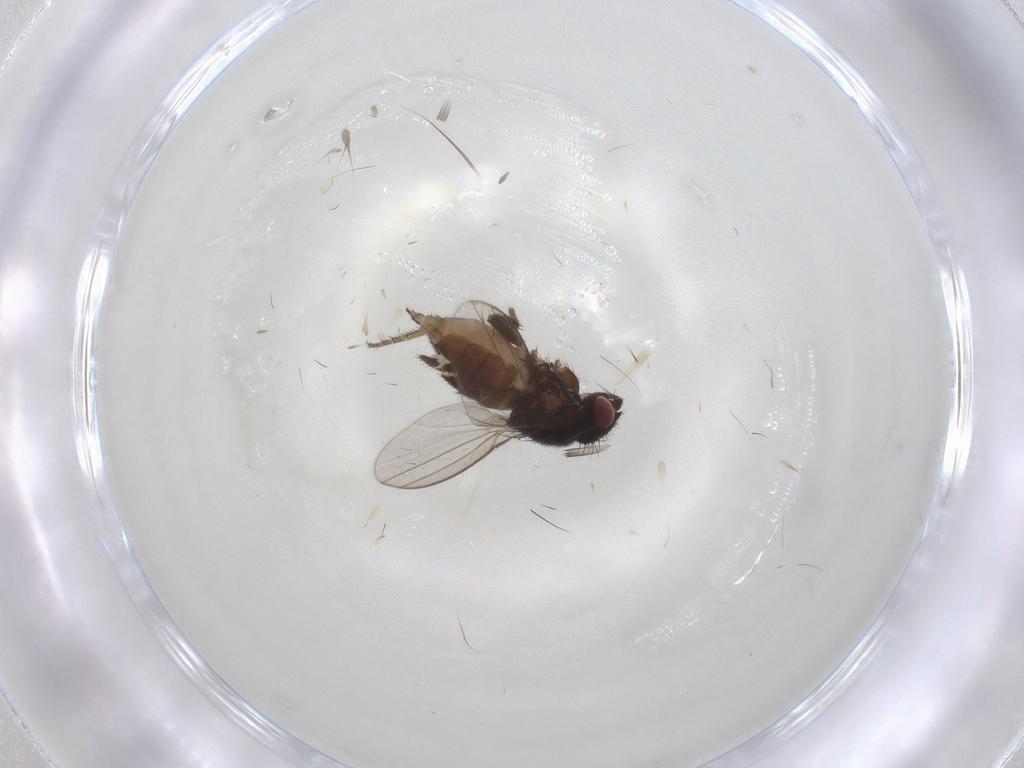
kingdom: Animalia
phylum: Arthropoda
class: Insecta
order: Diptera
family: Milichiidae
